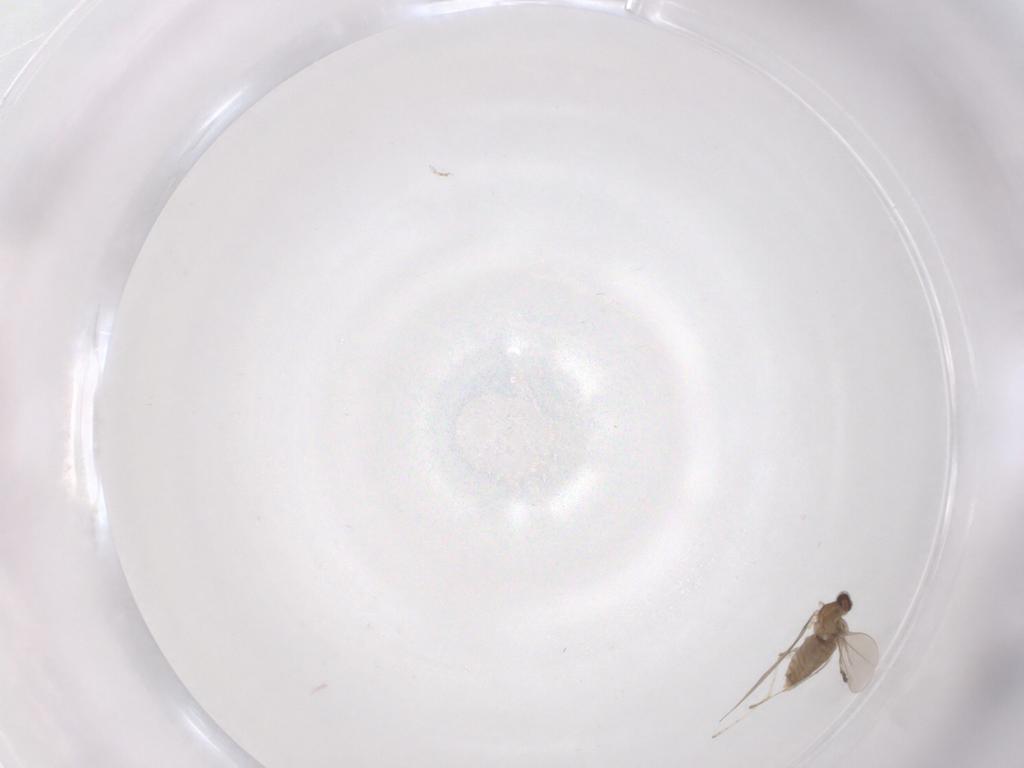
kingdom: Animalia
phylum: Arthropoda
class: Insecta
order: Diptera
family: Cecidomyiidae
